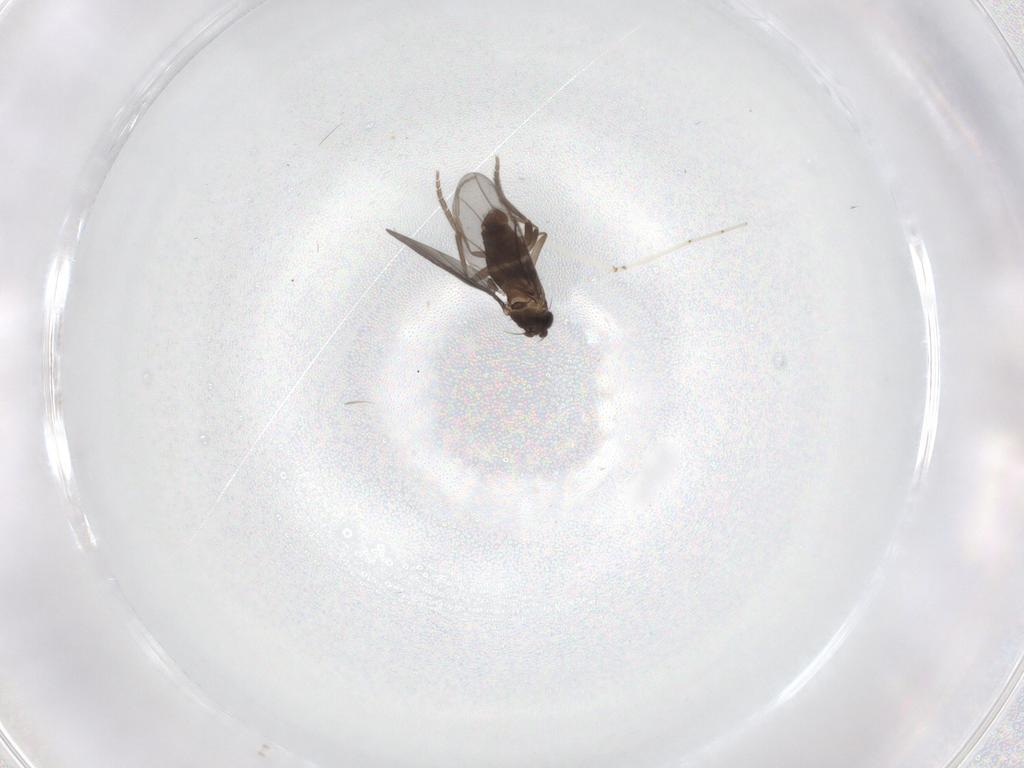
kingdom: Animalia
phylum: Arthropoda
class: Insecta
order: Diptera
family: Phoridae
